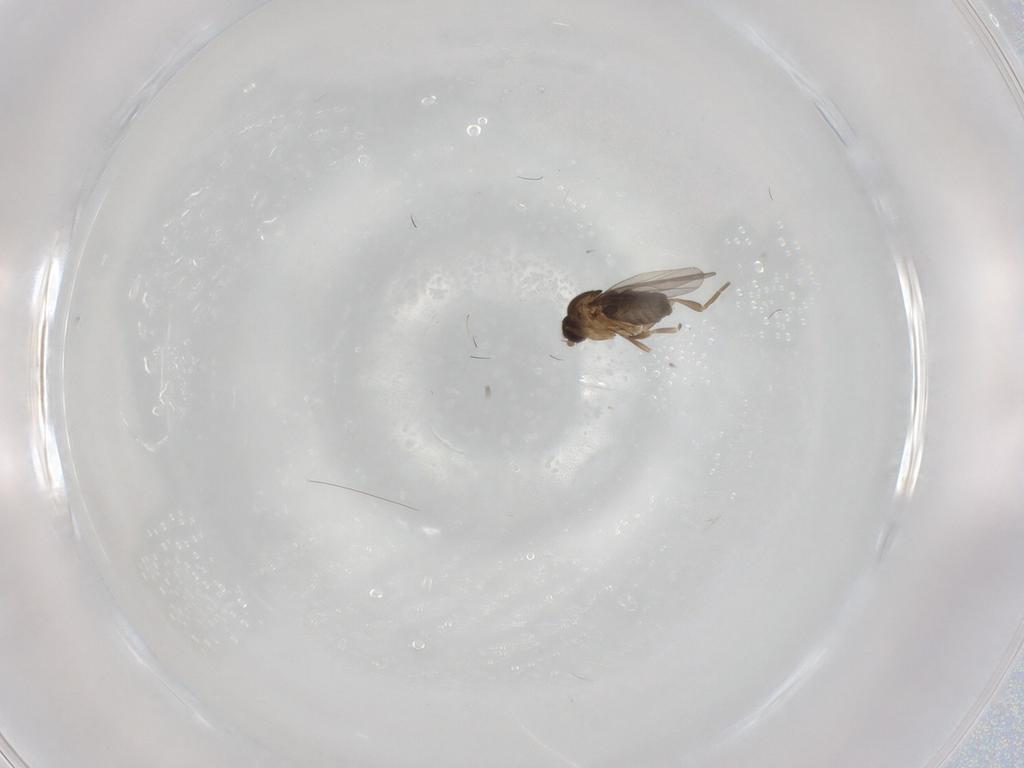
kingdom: Animalia
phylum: Arthropoda
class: Insecta
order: Diptera
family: Phoridae
